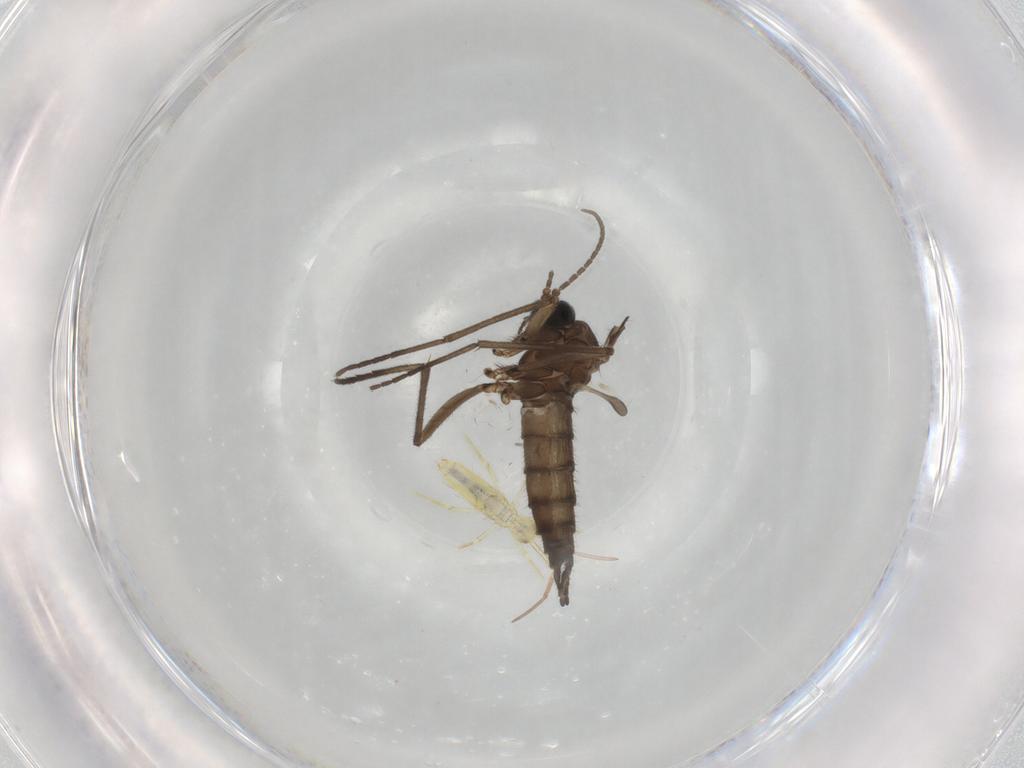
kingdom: Animalia
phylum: Arthropoda
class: Insecta
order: Diptera
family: Sciaridae
